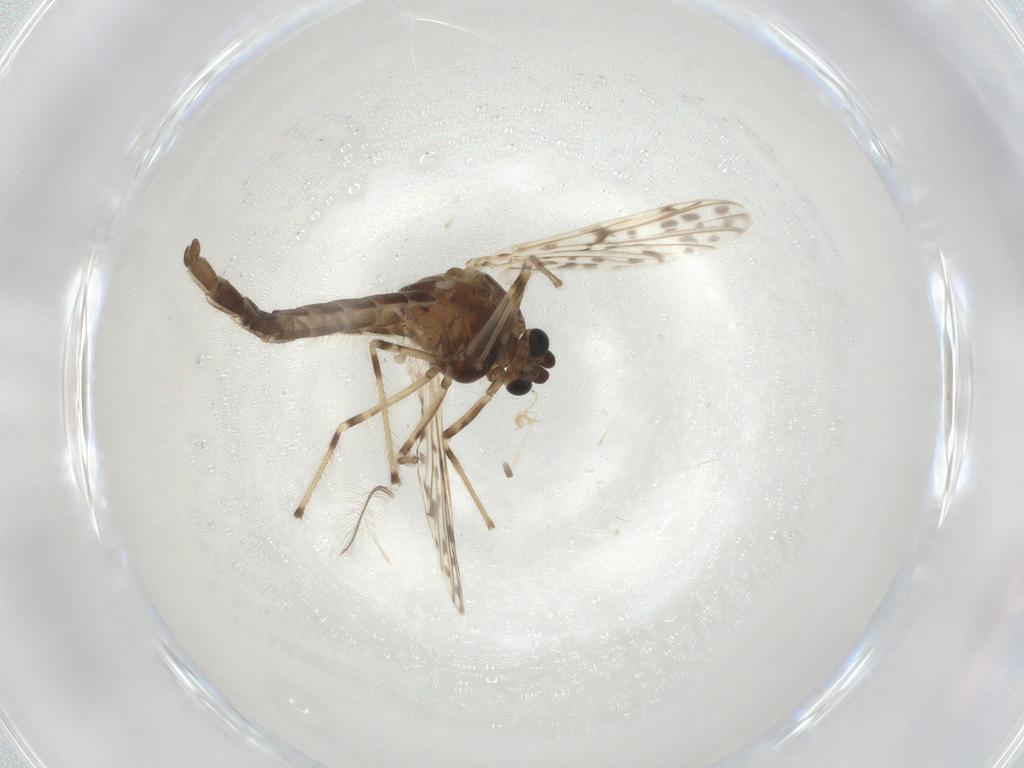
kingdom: Animalia
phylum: Arthropoda
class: Insecta
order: Diptera
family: Chironomidae
